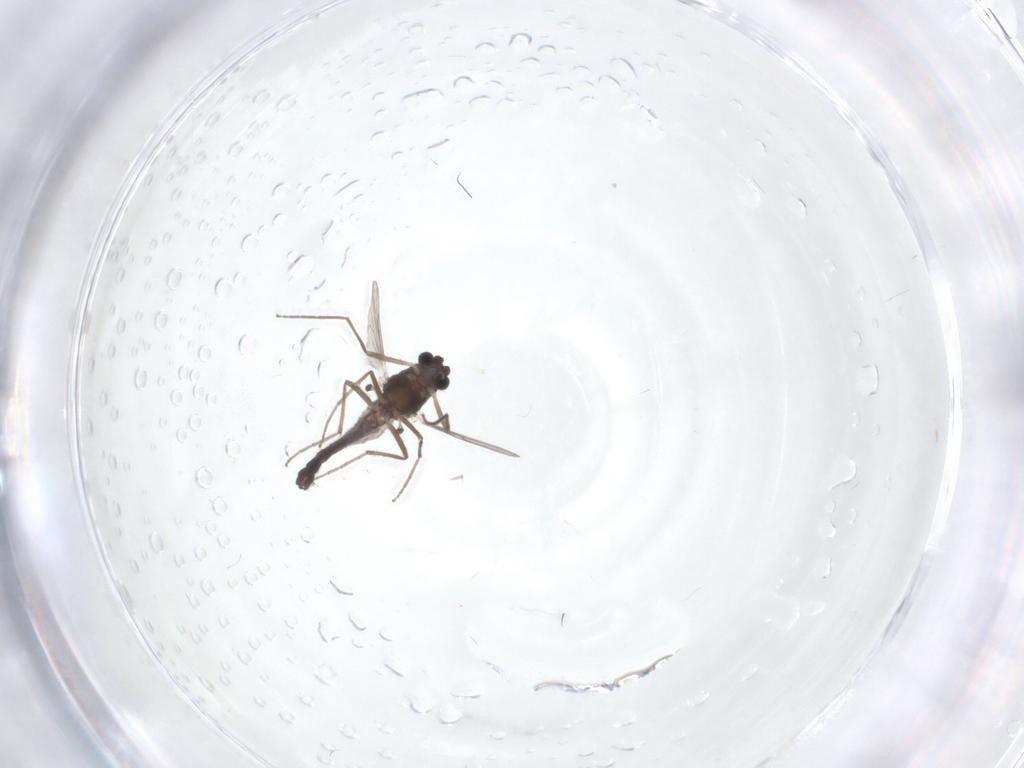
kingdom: Animalia
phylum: Arthropoda
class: Insecta
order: Diptera
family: Chironomidae
